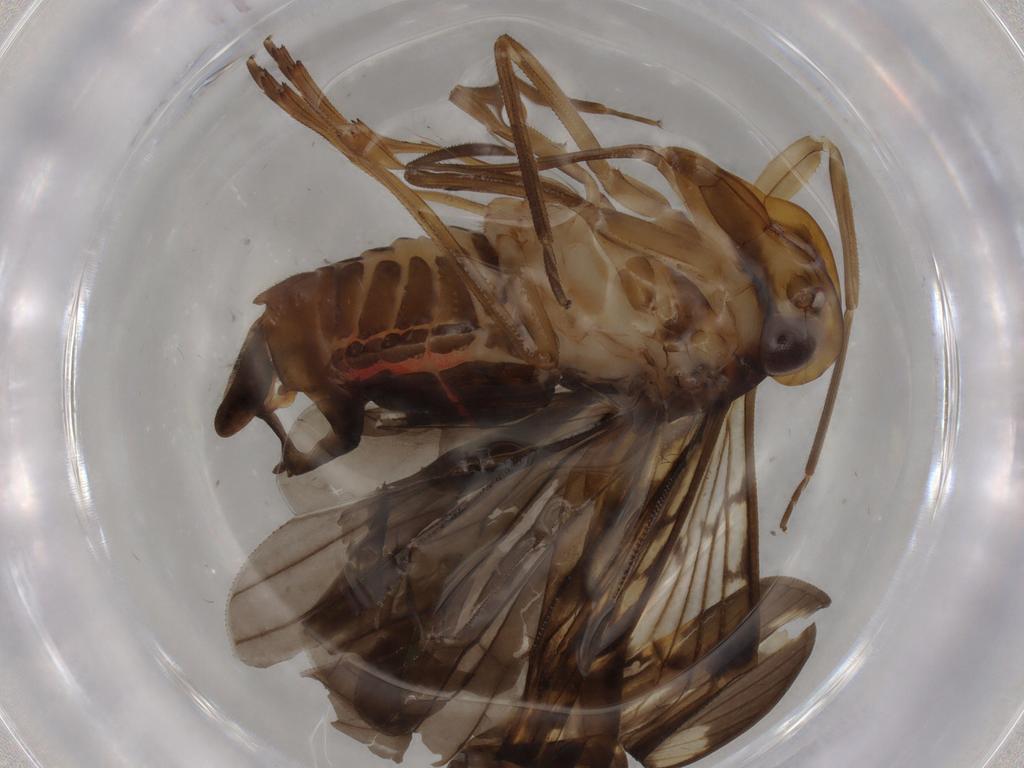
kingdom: Animalia
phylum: Arthropoda
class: Insecta
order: Hemiptera
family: Cixiidae
